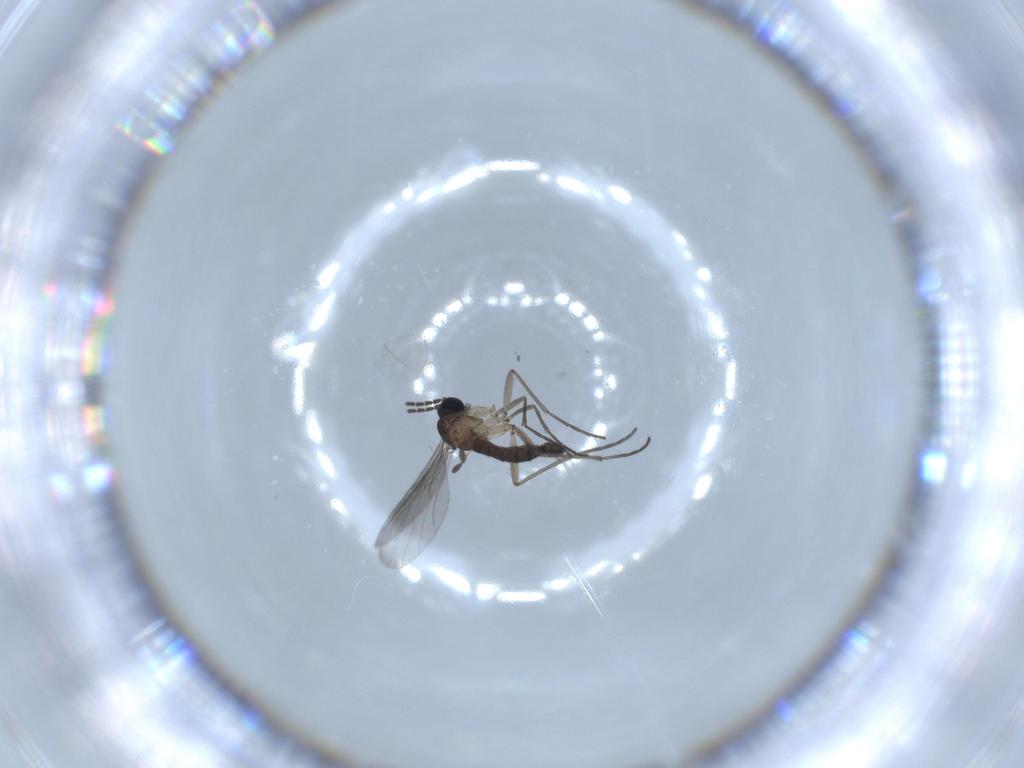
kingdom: Animalia
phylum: Arthropoda
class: Insecta
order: Diptera
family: Sciaridae
